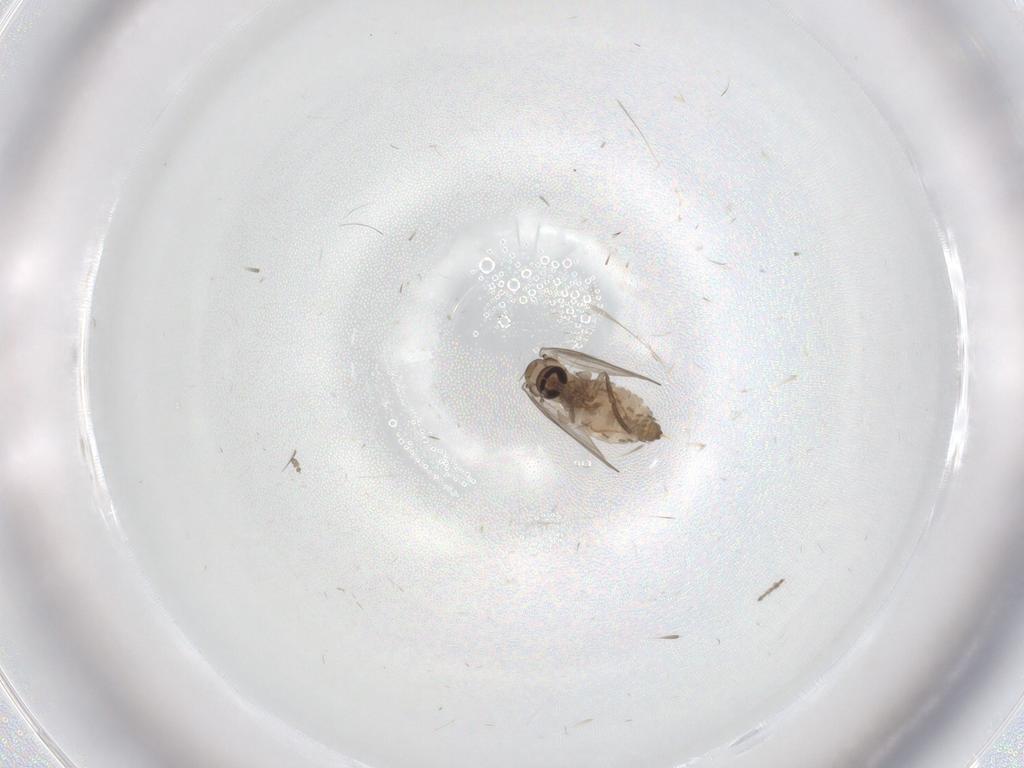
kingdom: Animalia
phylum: Arthropoda
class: Insecta
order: Diptera
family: Psychodidae
